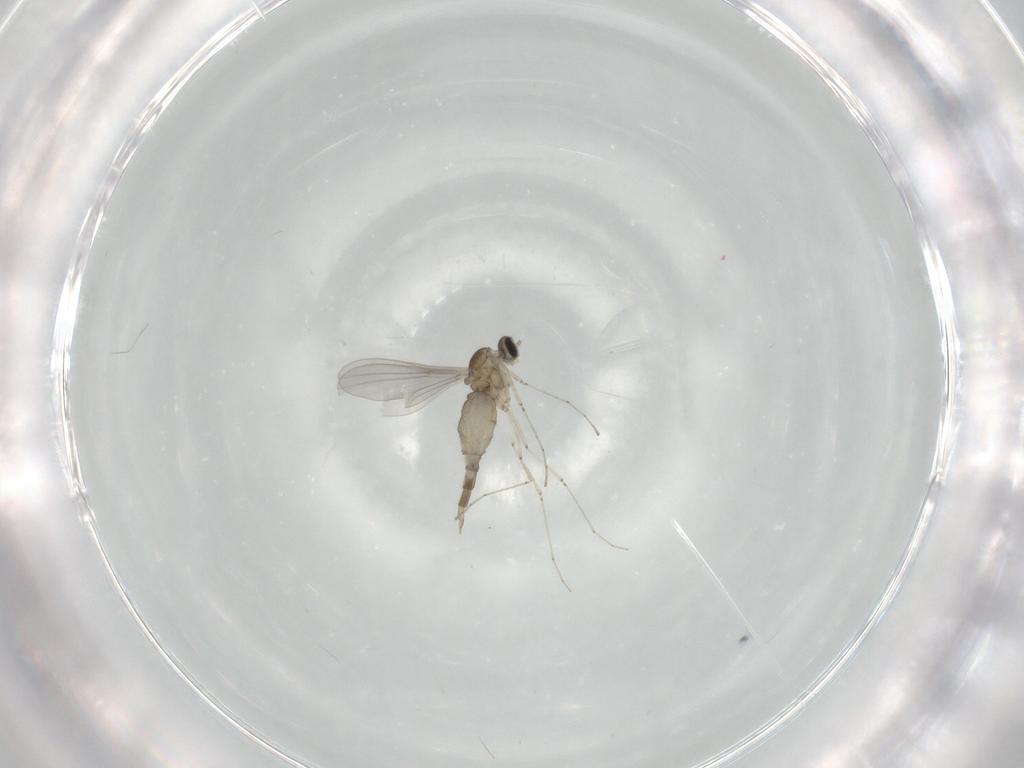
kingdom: Animalia
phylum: Arthropoda
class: Insecta
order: Diptera
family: Cecidomyiidae
